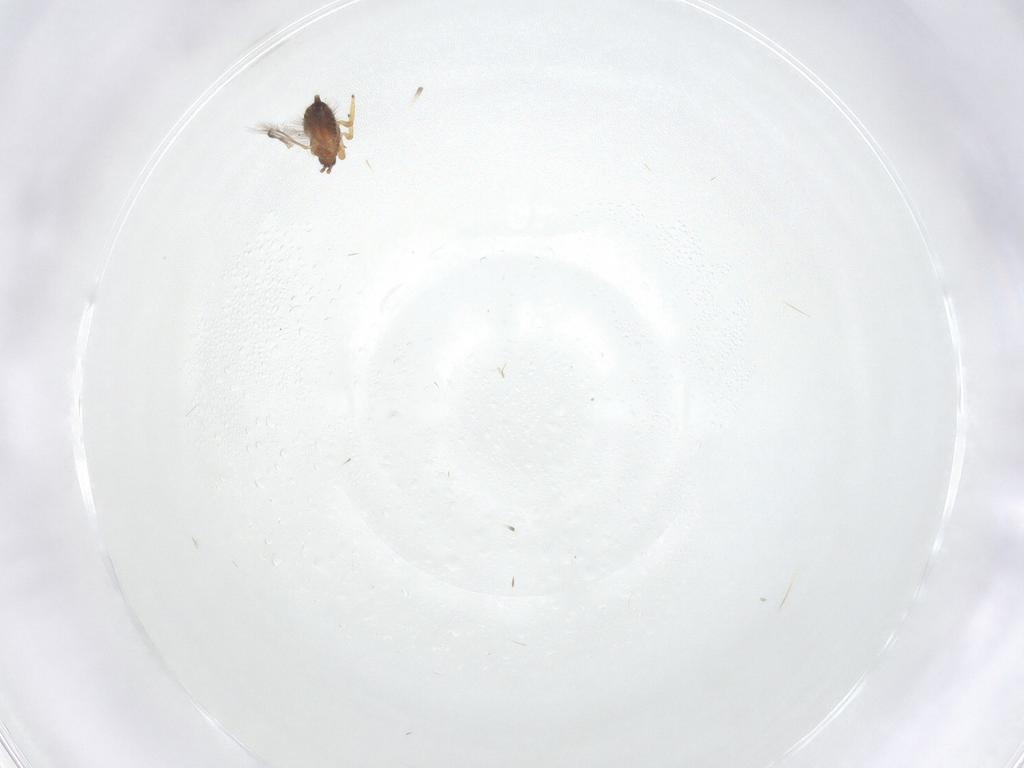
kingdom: Animalia
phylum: Arthropoda
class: Insecta
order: Thysanoptera
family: Phlaeothripidae
